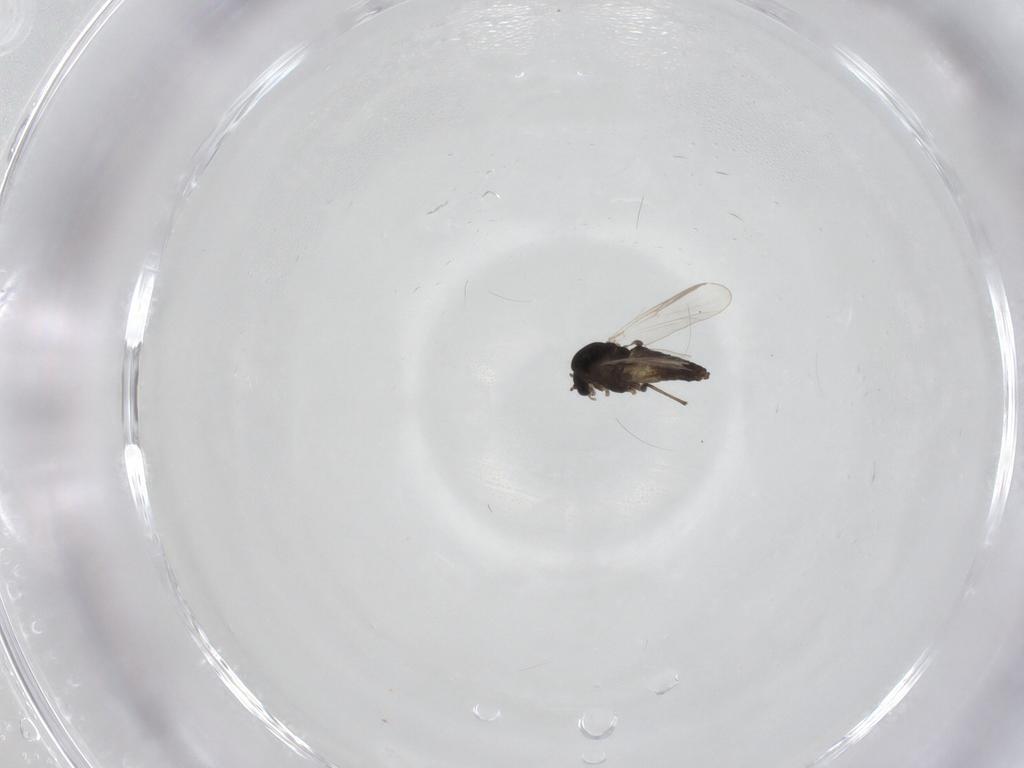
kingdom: Animalia
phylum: Arthropoda
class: Insecta
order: Diptera
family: Chironomidae
